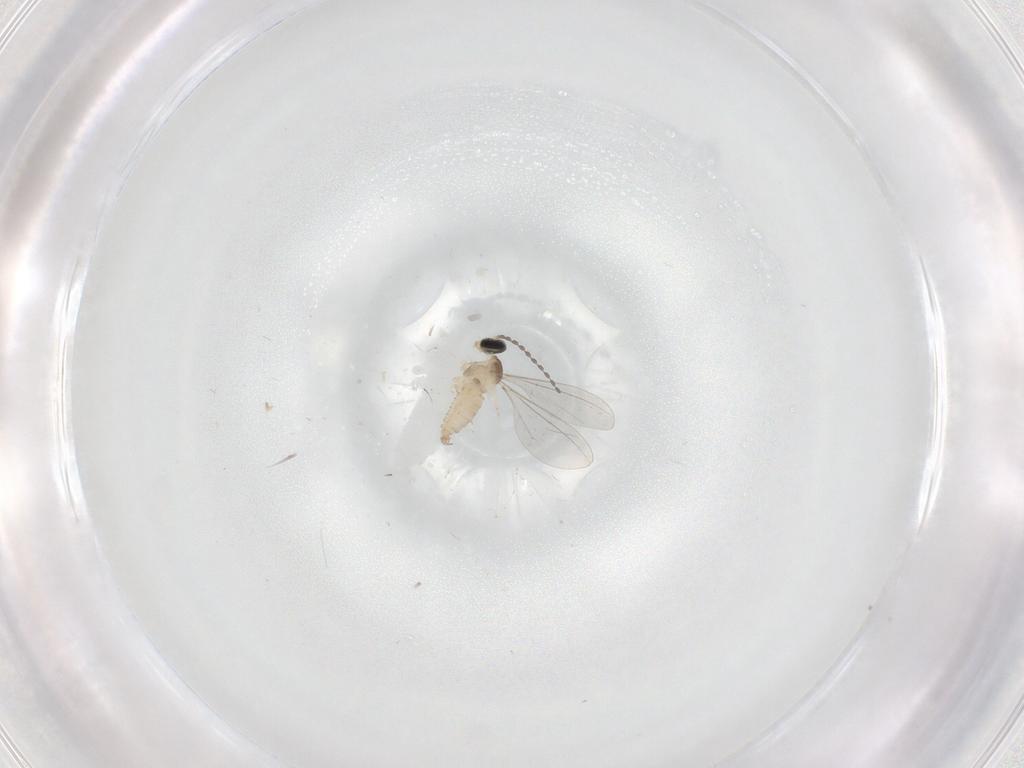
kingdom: Animalia
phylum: Arthropoda
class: Insecta
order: Diptera
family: Cecidomyiidae
